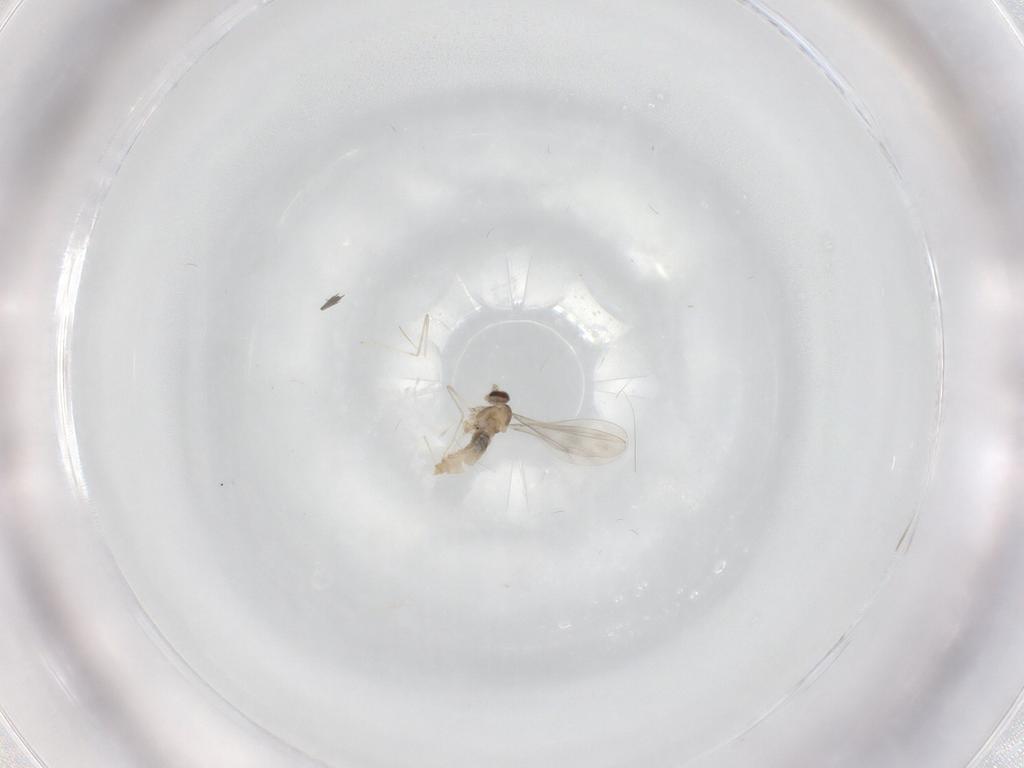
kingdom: Animalia
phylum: Arthropoda
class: Insecta
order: Diptera
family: Cecidomyiidae
